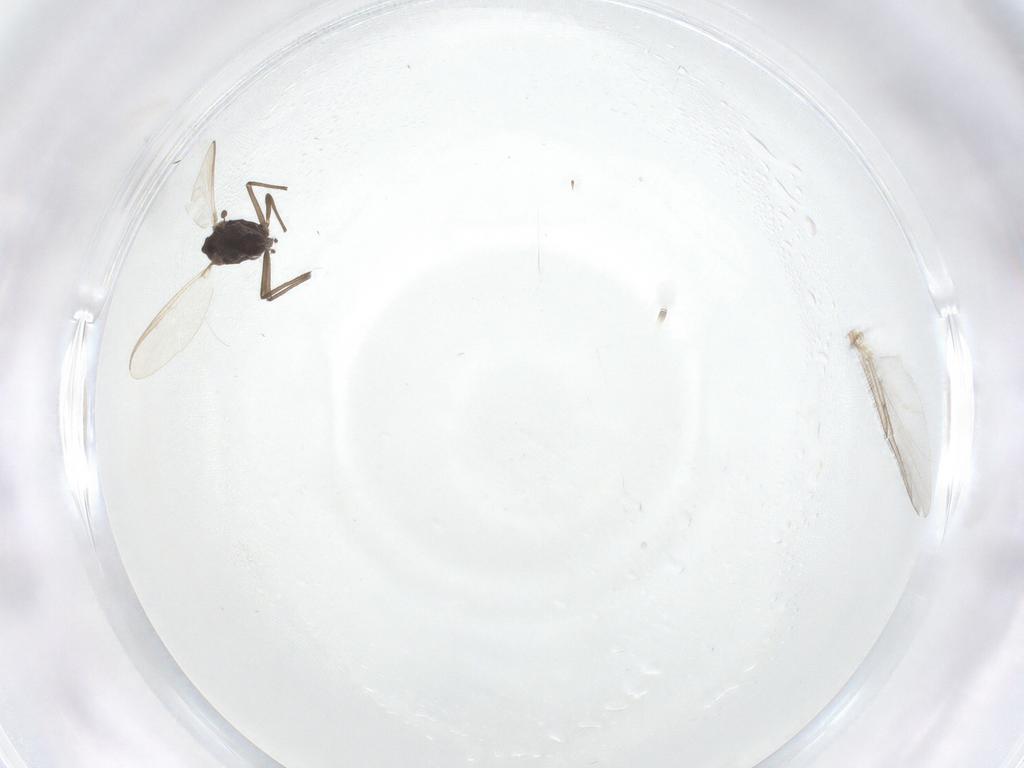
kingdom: Animalia
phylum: Arthropoda
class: Insecta
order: Diptera
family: Sciaridae
